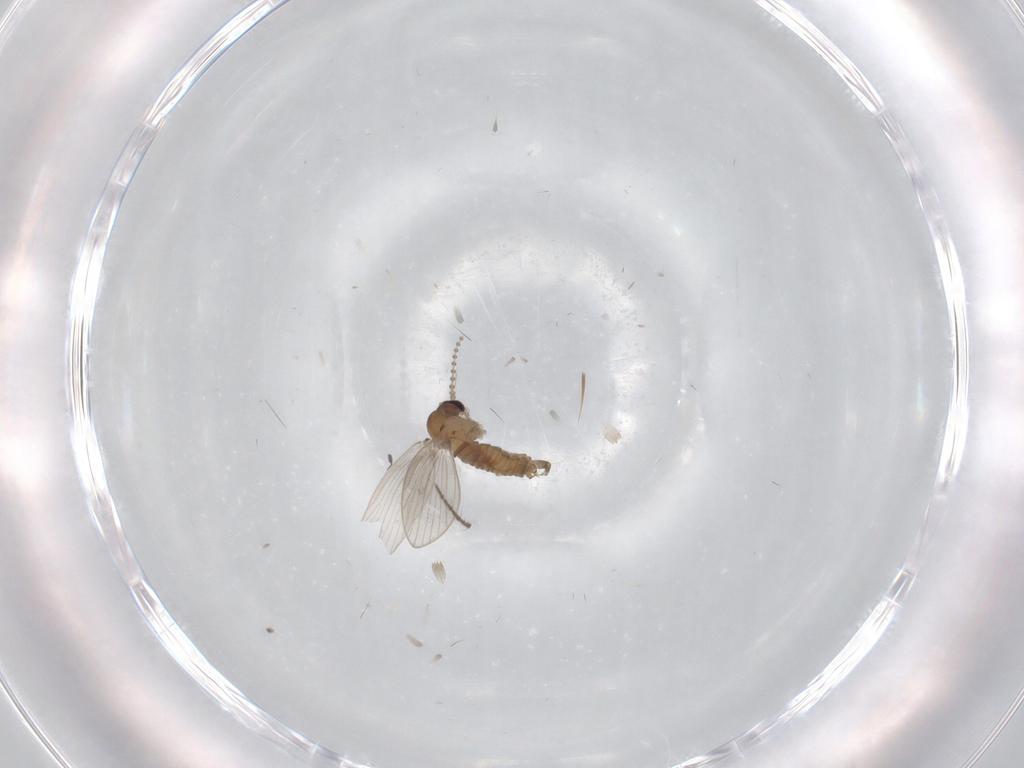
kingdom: Animalia
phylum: Arthropoda
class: Insecta
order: Diptera
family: Psychodidae
